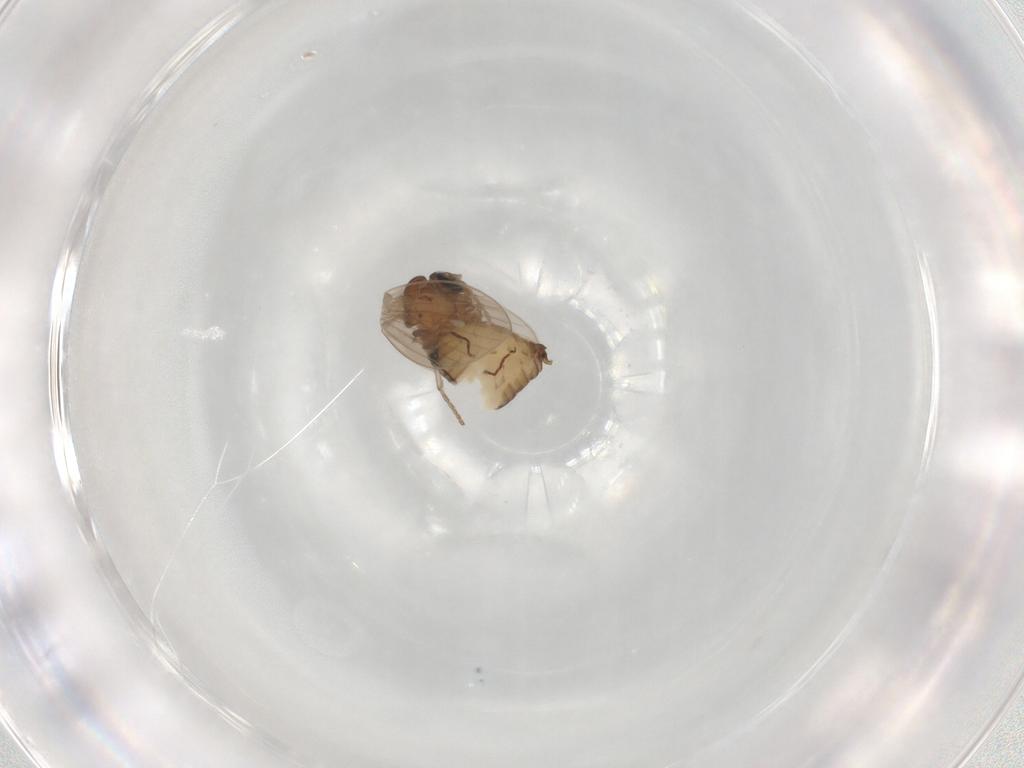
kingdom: Animalia
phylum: Arthropoda
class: Insecta
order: Diptera
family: Psychodidae
